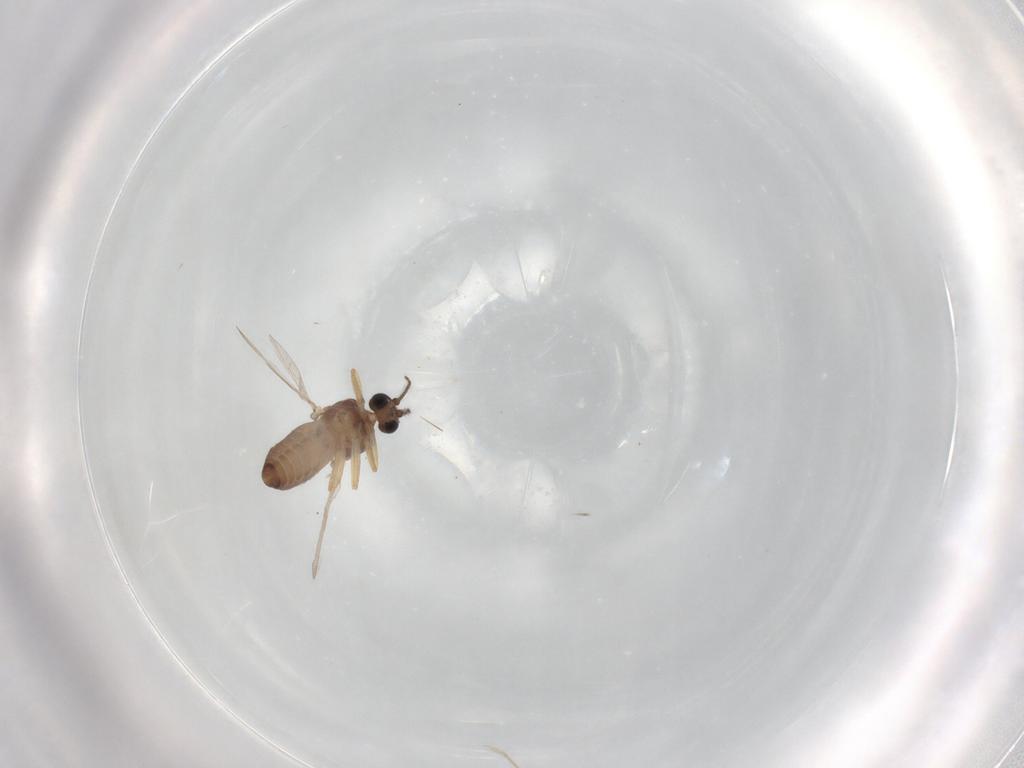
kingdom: Animalia
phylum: Arthropoda
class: Insecta
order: Diptera
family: Ceratopogonidae
